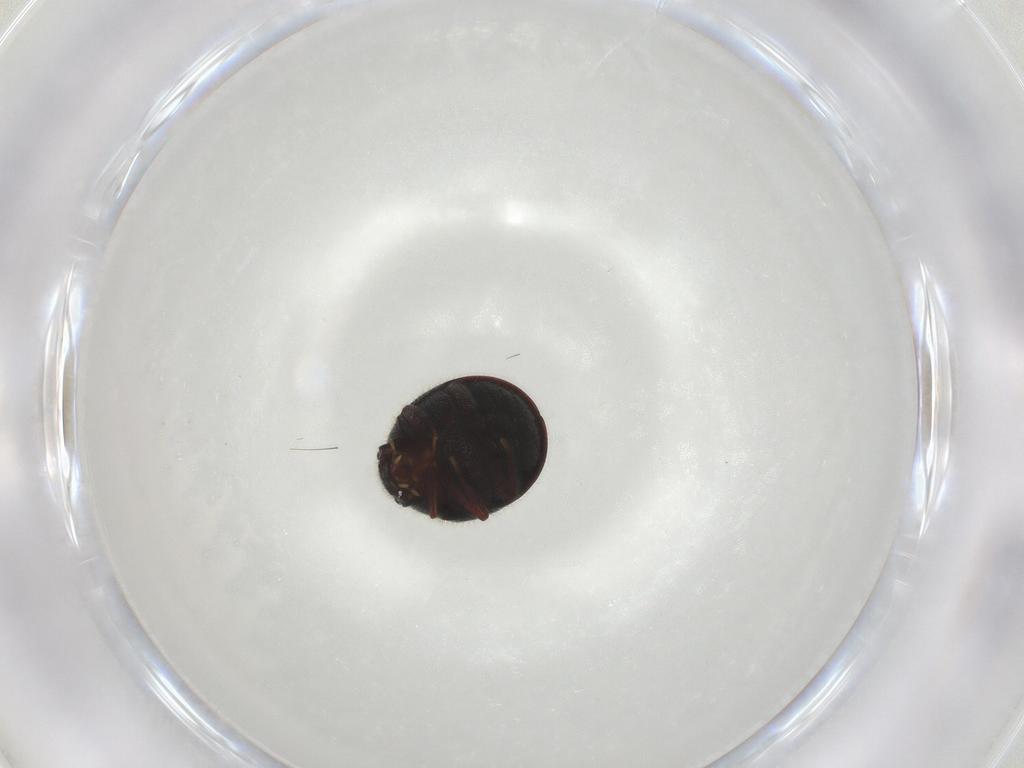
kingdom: Animalia
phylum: Arthropoda
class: Insecta
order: Coleoptera
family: Ptinidae
